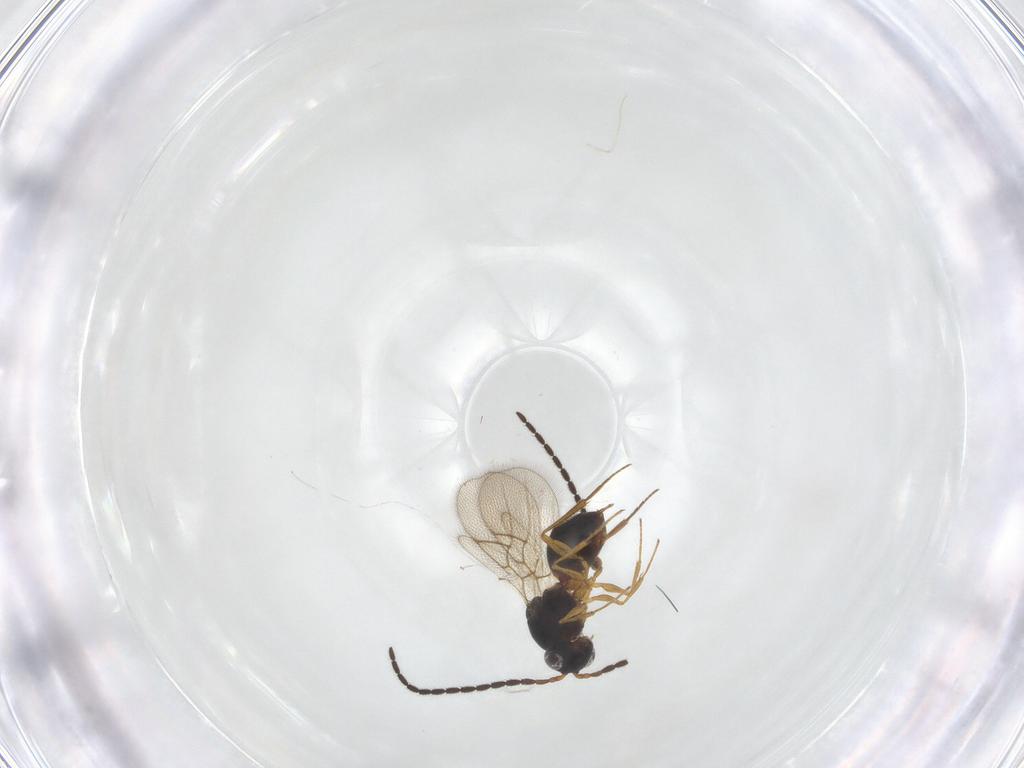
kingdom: Animalia
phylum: Arthropoda
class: Insecta
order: Hymenoptera
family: Figitidae
